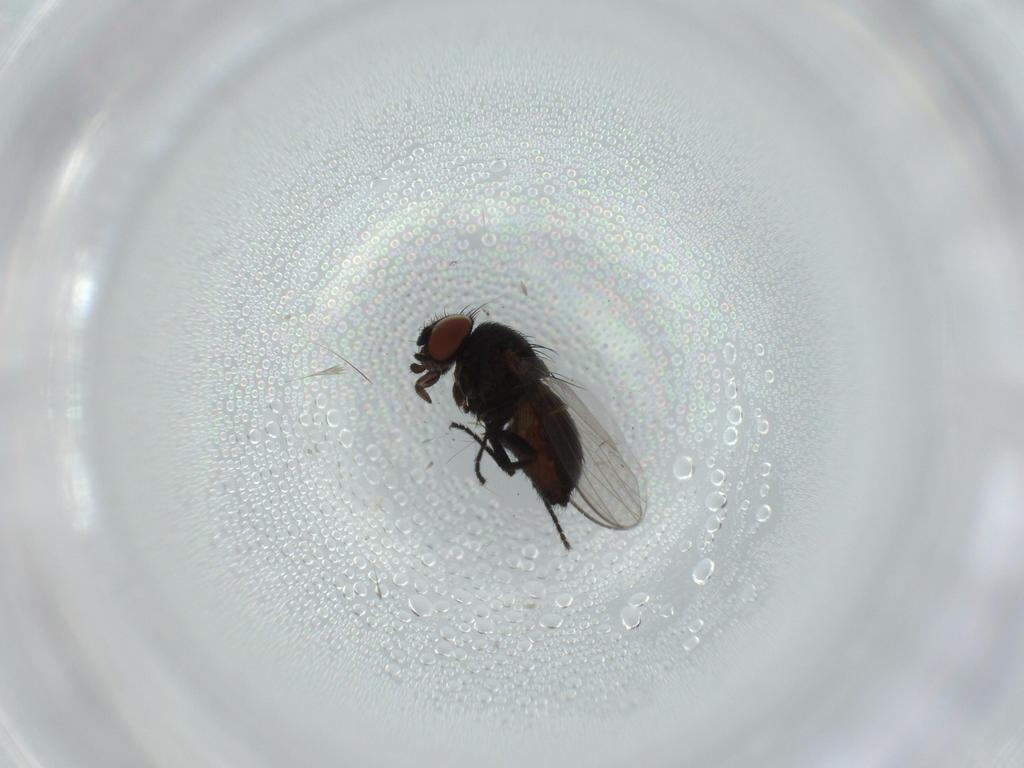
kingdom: Animalia
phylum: Arthropoda
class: Insecta
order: Diptera
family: Milichiidae
